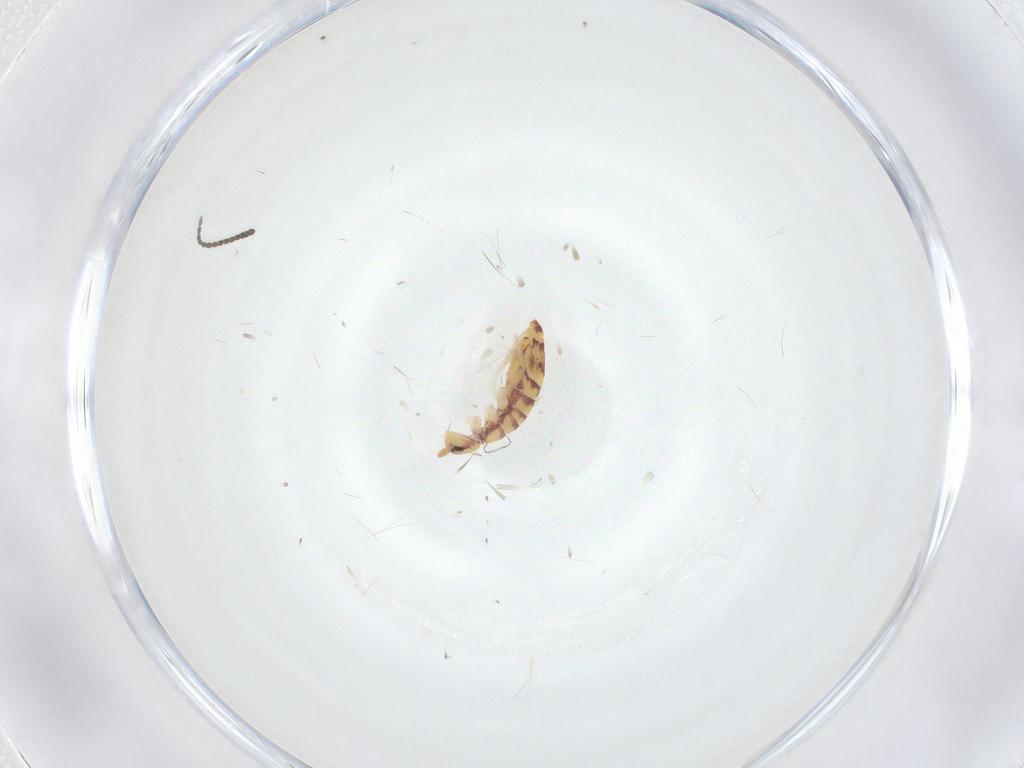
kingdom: Animalia
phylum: Arthropoda
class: Collembola
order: Entomobryomorpha
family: Entomobryidae
